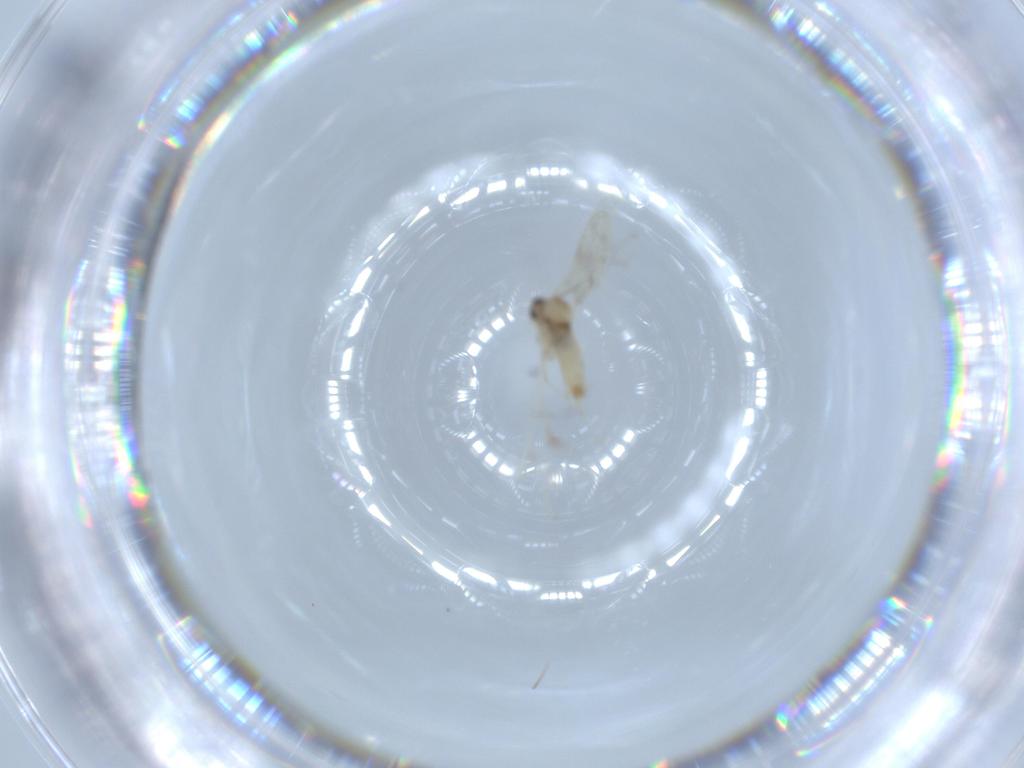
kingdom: Animalia
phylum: Arthropoda
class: Insecta
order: Diptera
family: Cecidomyiidae
